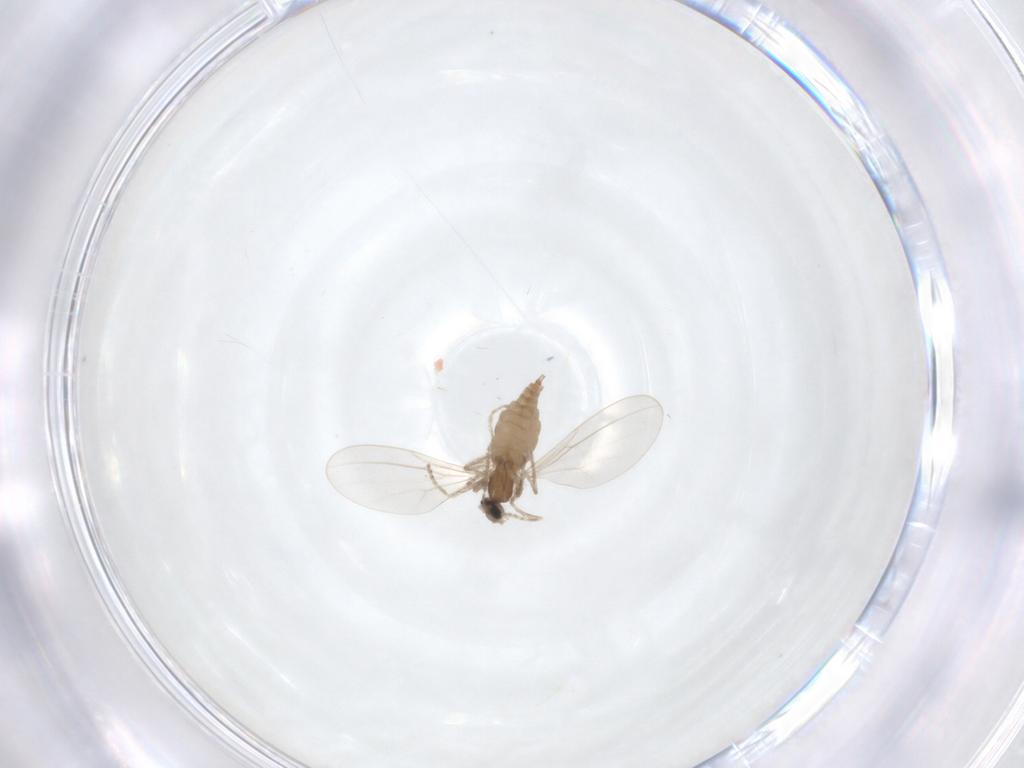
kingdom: Animalia
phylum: Arthropoda
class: Insecta
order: Diptera
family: Cecidomyiidae
